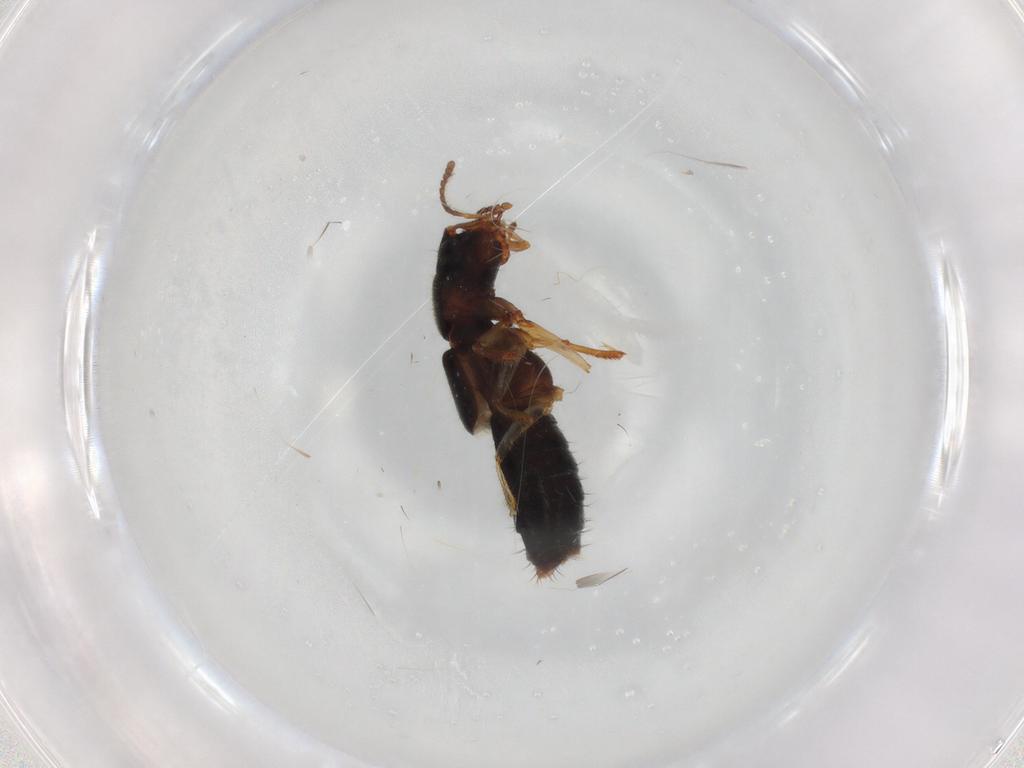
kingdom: Animalia
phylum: Arthropoda
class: Insecta
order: Coleoptera
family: Staphylinidae
